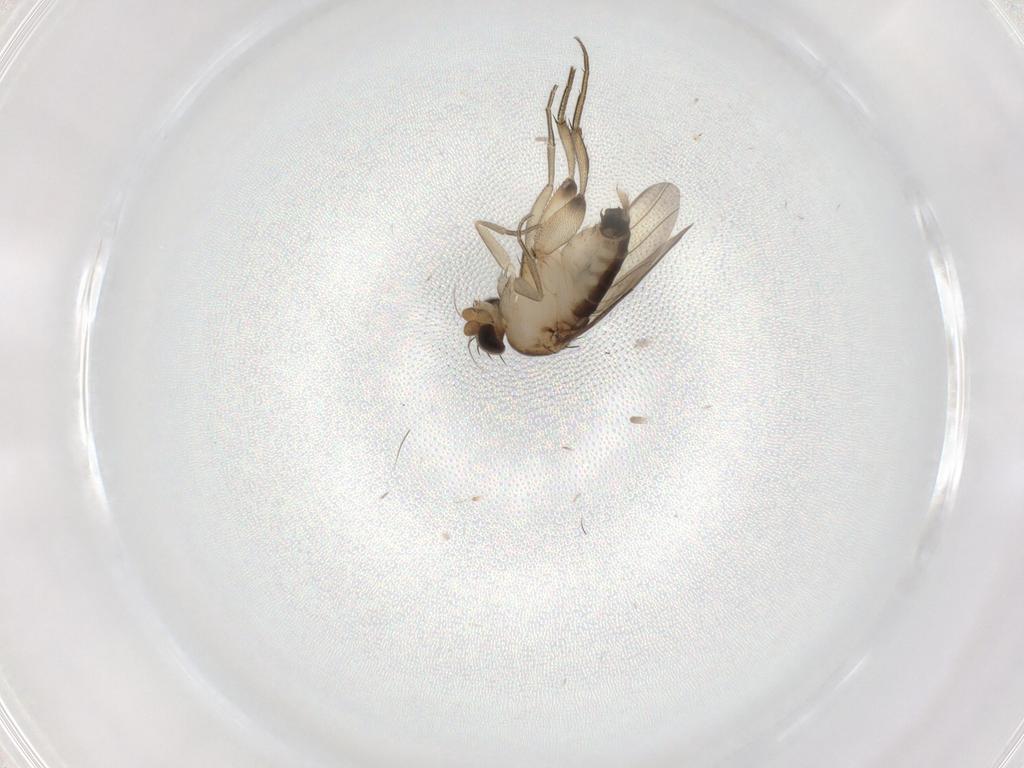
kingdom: Animalia
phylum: Arthropoda
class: Insecta
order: Diptera
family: Phoridae
